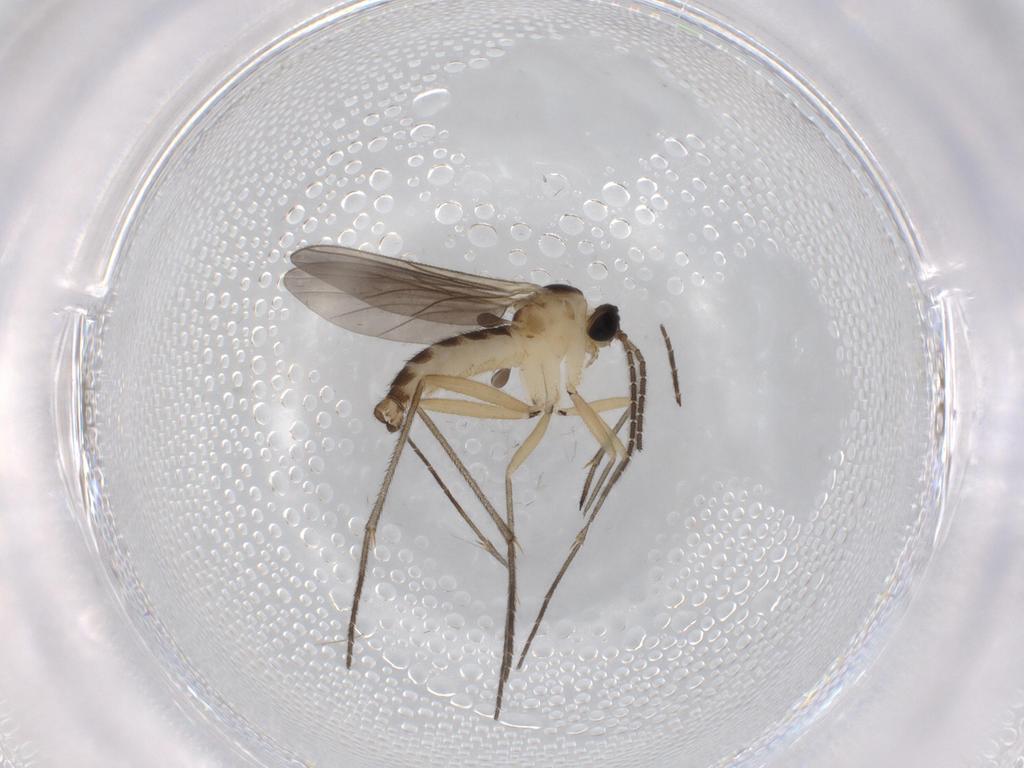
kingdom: Animalia
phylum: Arthropoda
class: Insecta
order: Diptera
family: Sciaridae
